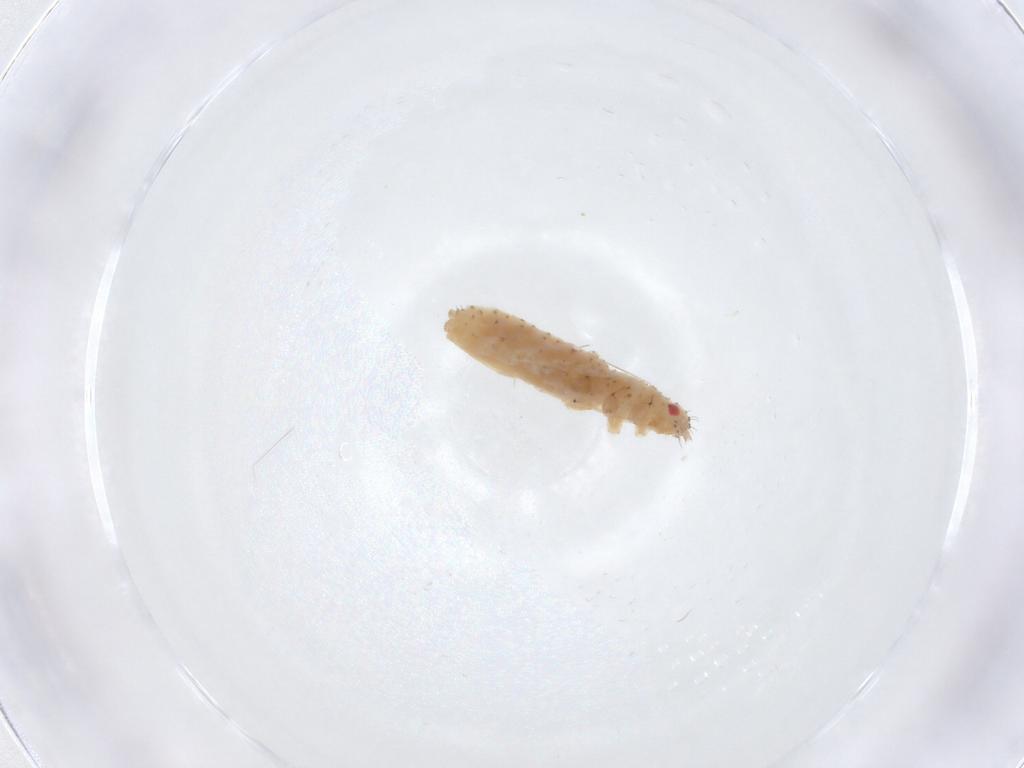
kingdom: Animalia
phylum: Arthropoda
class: Insecta
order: Hemiptera
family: Aphididae
